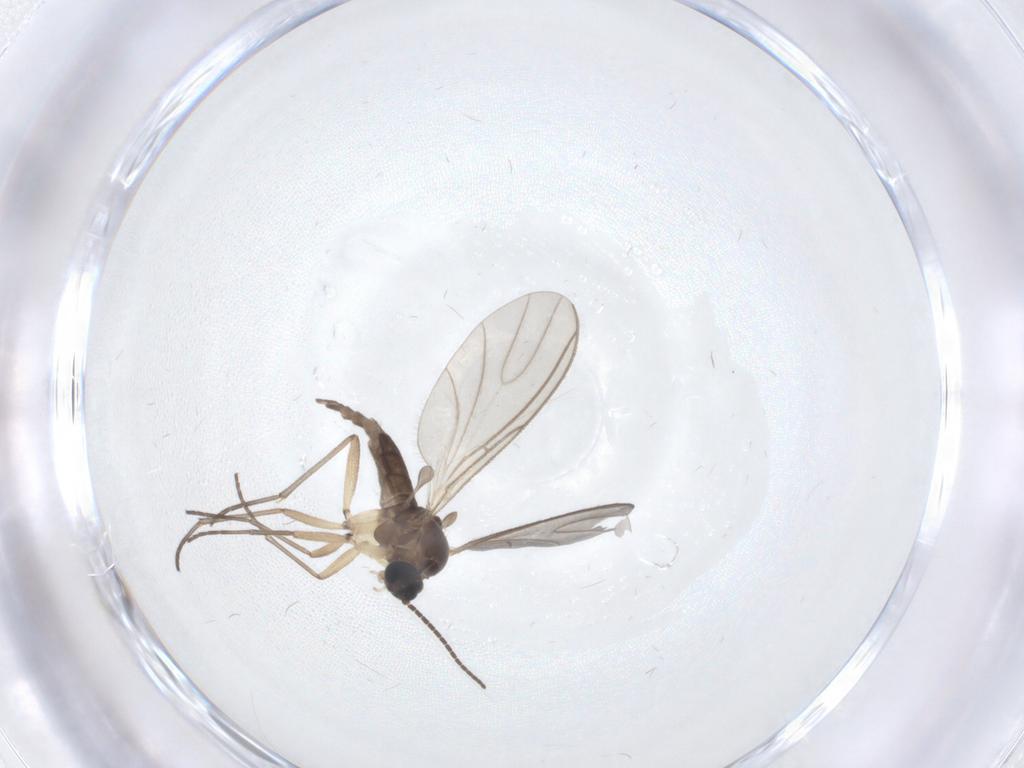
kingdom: Animalia
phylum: Arthropoda
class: Insecta
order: Diptera
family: Sciaridae
